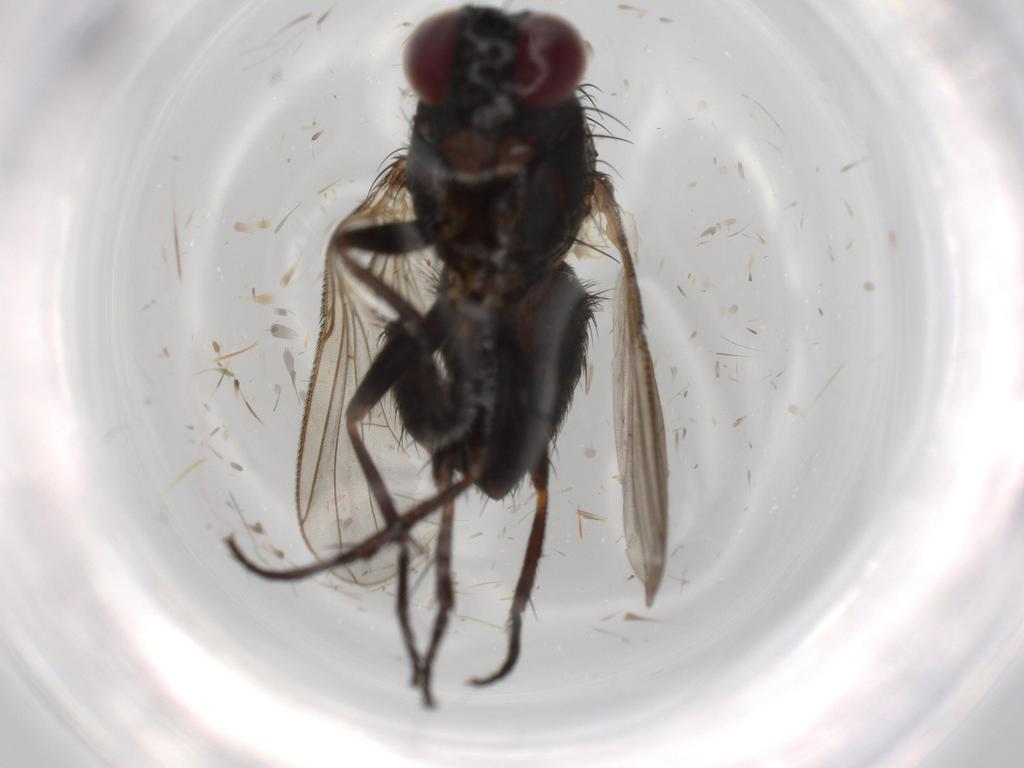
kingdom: Animalia
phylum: Arthropoda
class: Insecta
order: Diptera
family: Muscidae
